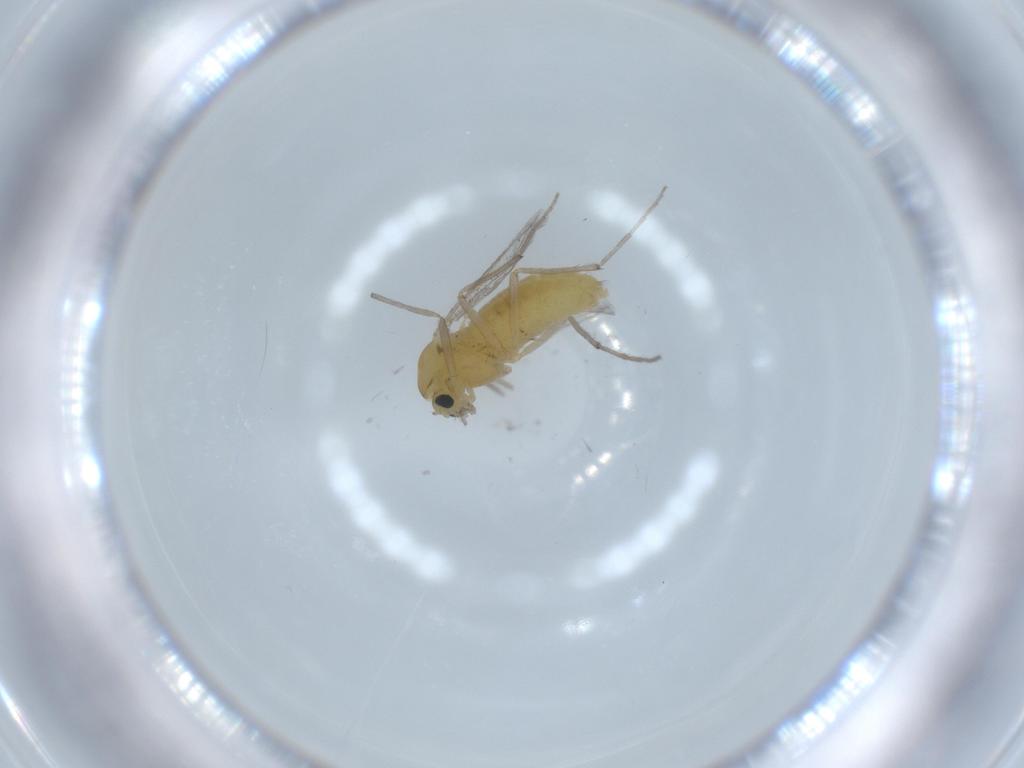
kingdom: Animalia
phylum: Arthropoda
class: Insecta
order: Diptera
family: Chironomidae
